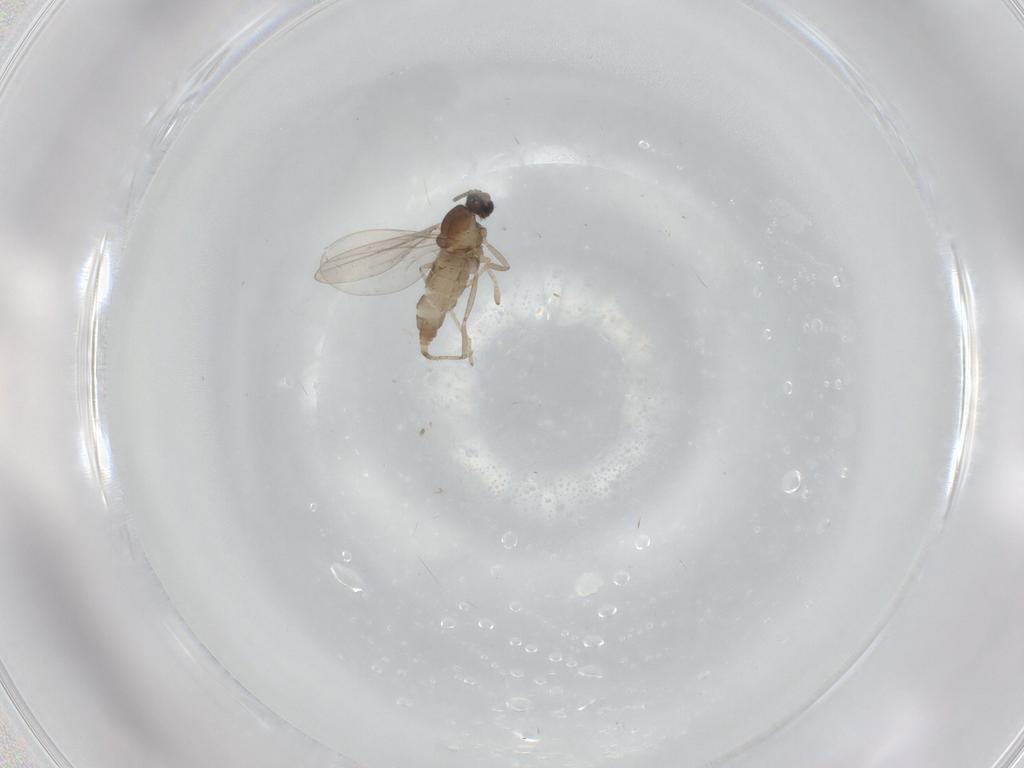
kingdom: Animalia
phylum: Arthropoda
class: Insecta
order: Diptera
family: Cecidomyiidae
